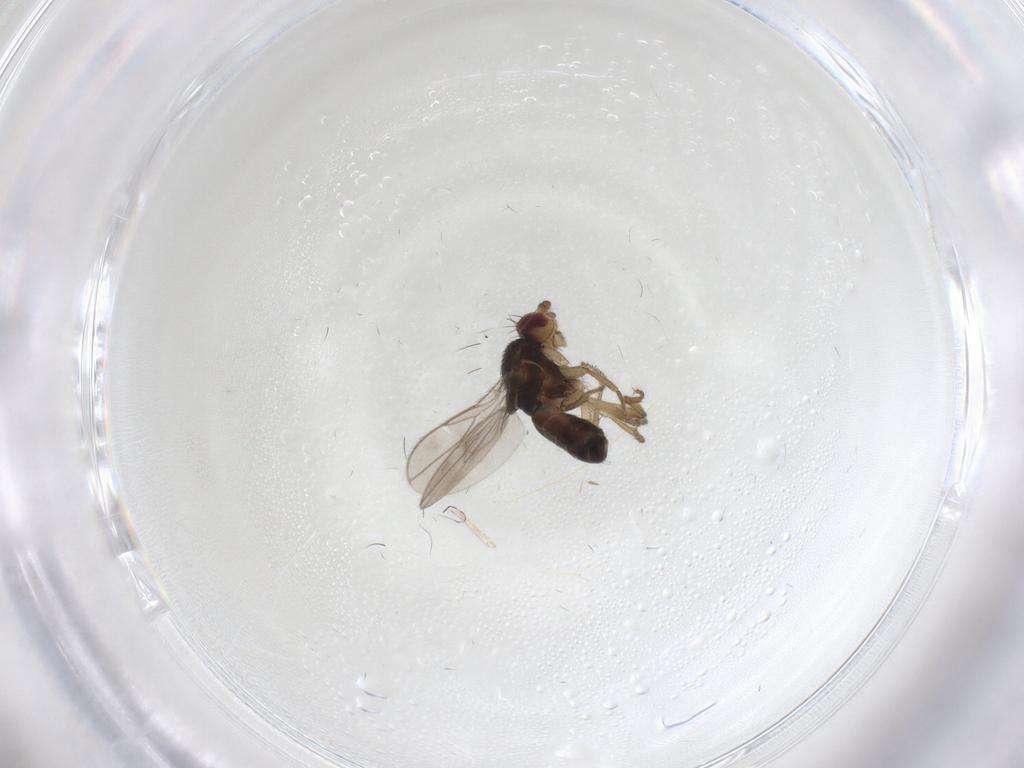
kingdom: Animalia
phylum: Arthropoda
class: Insecta
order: Diptera
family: Sphaeroceridae
